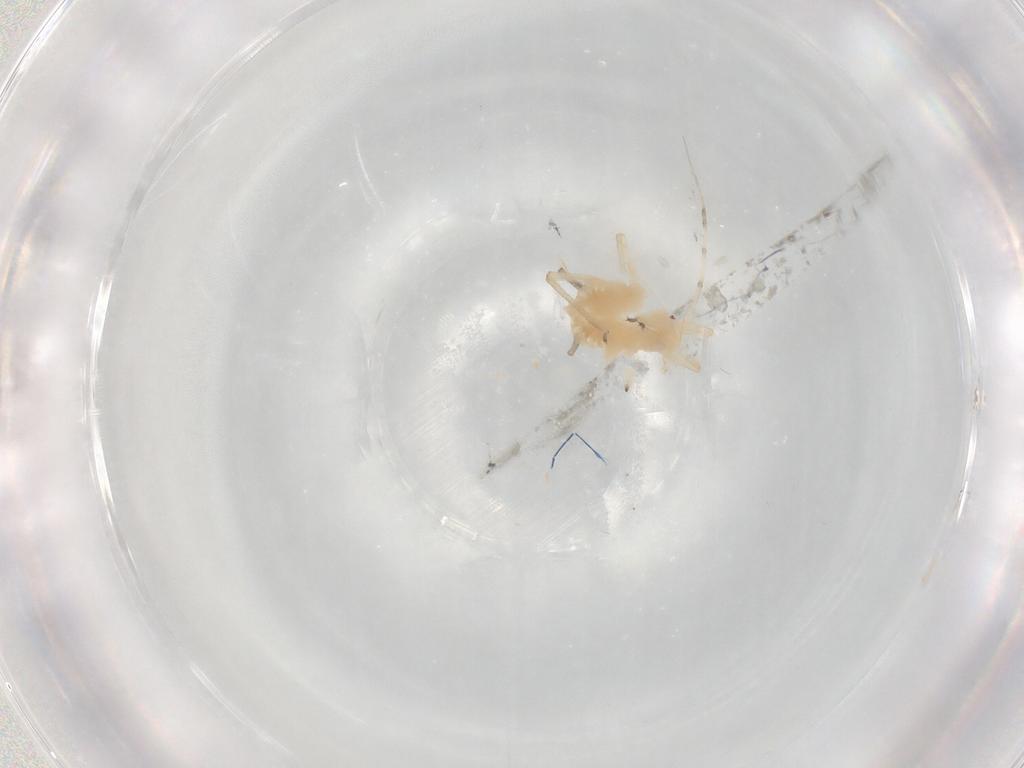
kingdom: Animalia
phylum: Arthropoda
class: Insecta
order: Hemiptera
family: Aphididae
